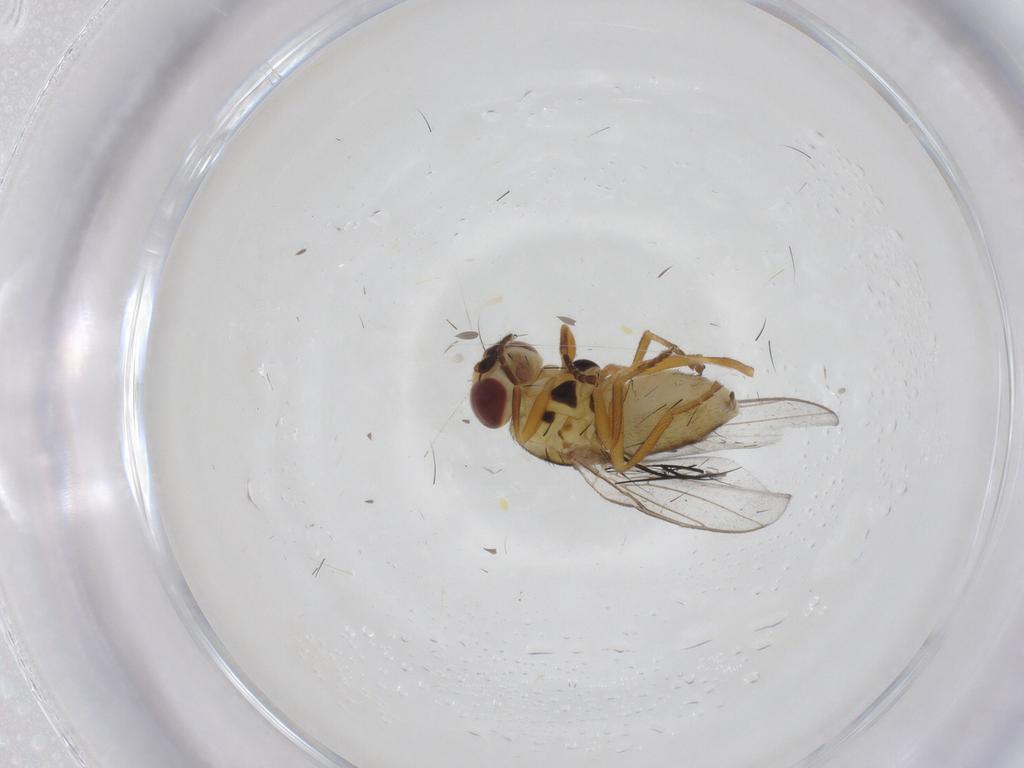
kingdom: Animalia
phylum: Arthropoda
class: Insecta
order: Diptera
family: Chloropidae
